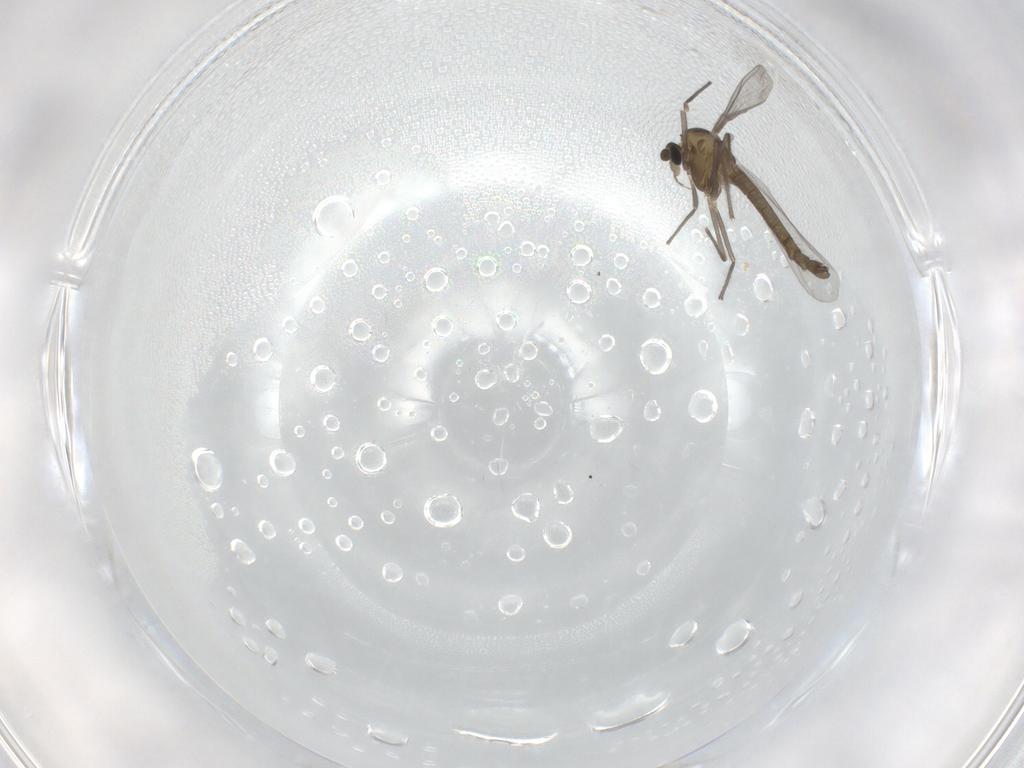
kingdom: Animalia
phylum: Arthropoda
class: Insecta
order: Diptera
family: Chironomidae
